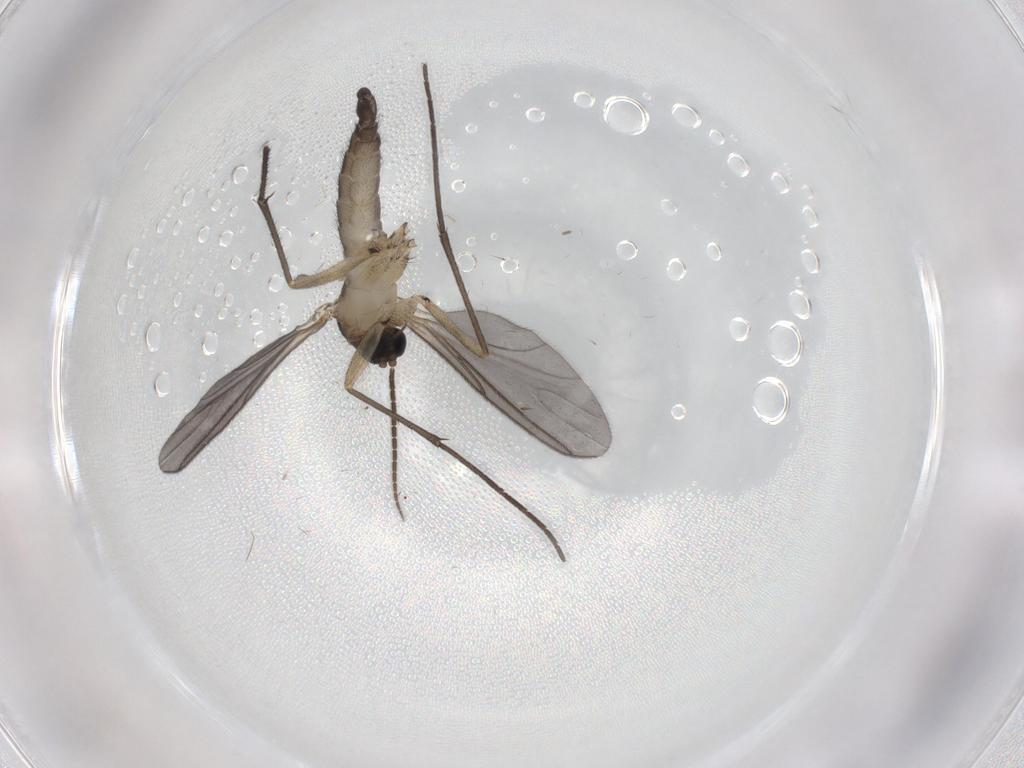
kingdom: Animalia
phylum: Arthropoda
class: Insecta
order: Diptera
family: Sciaridae
